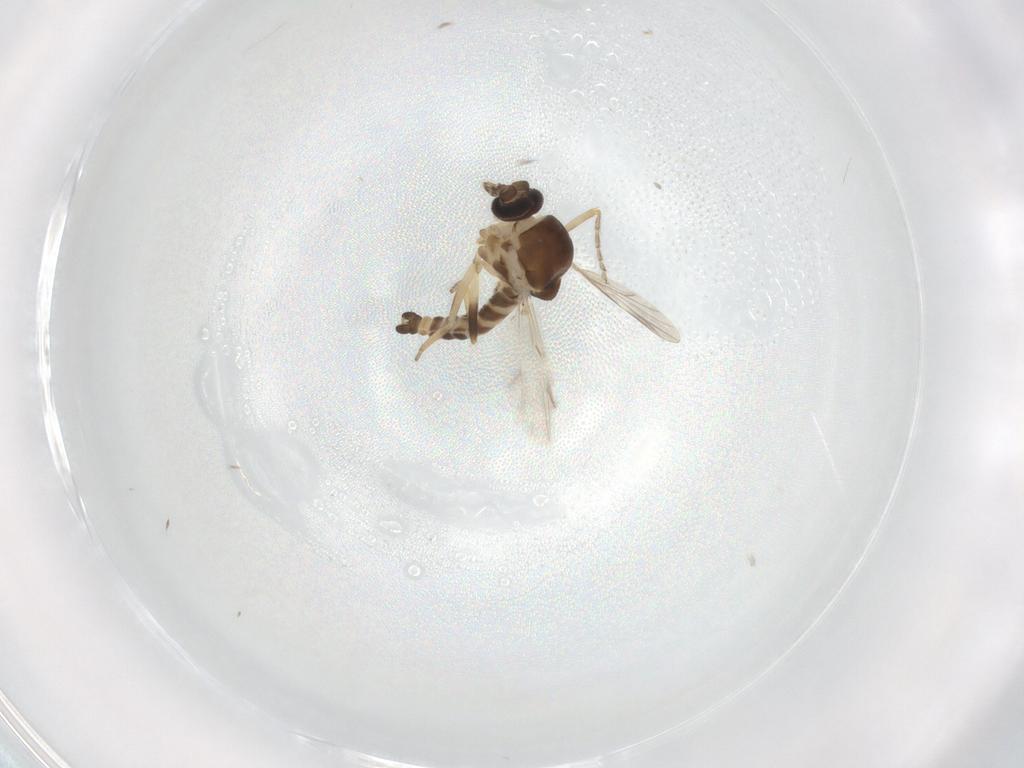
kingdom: Animalia
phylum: Arthropoda
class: Insecta
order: Diptera
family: Ceratopogonidae
